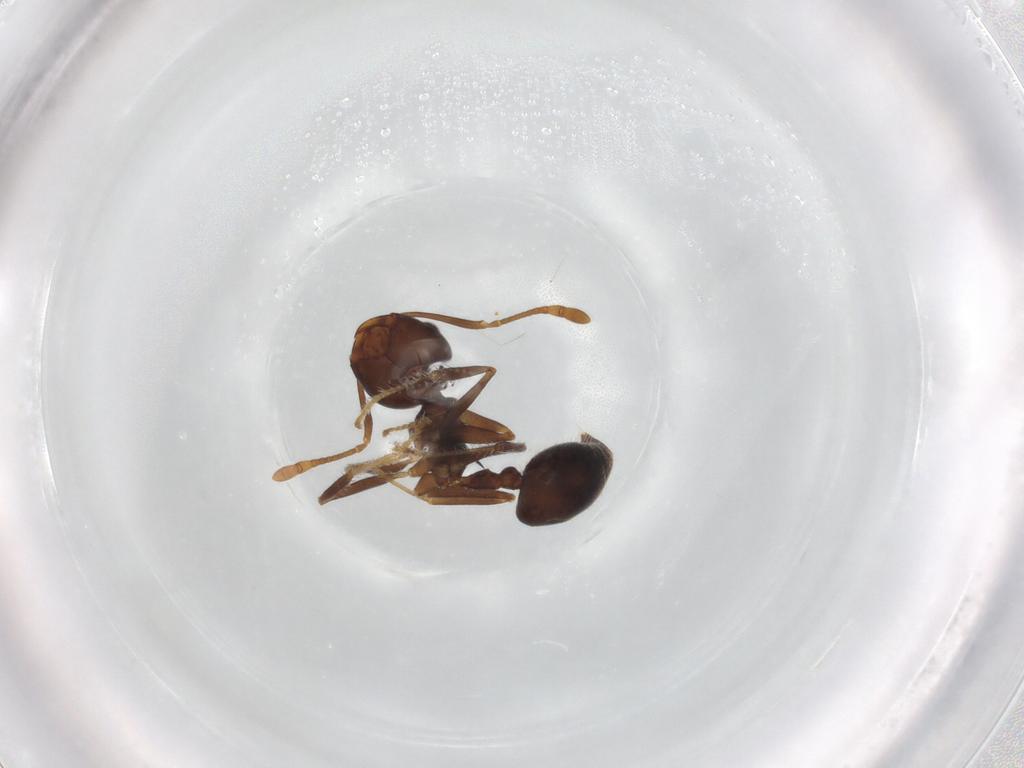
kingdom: Animalia
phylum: Arthropoda
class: Insecta
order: Hymenoptera
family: Formicidae
